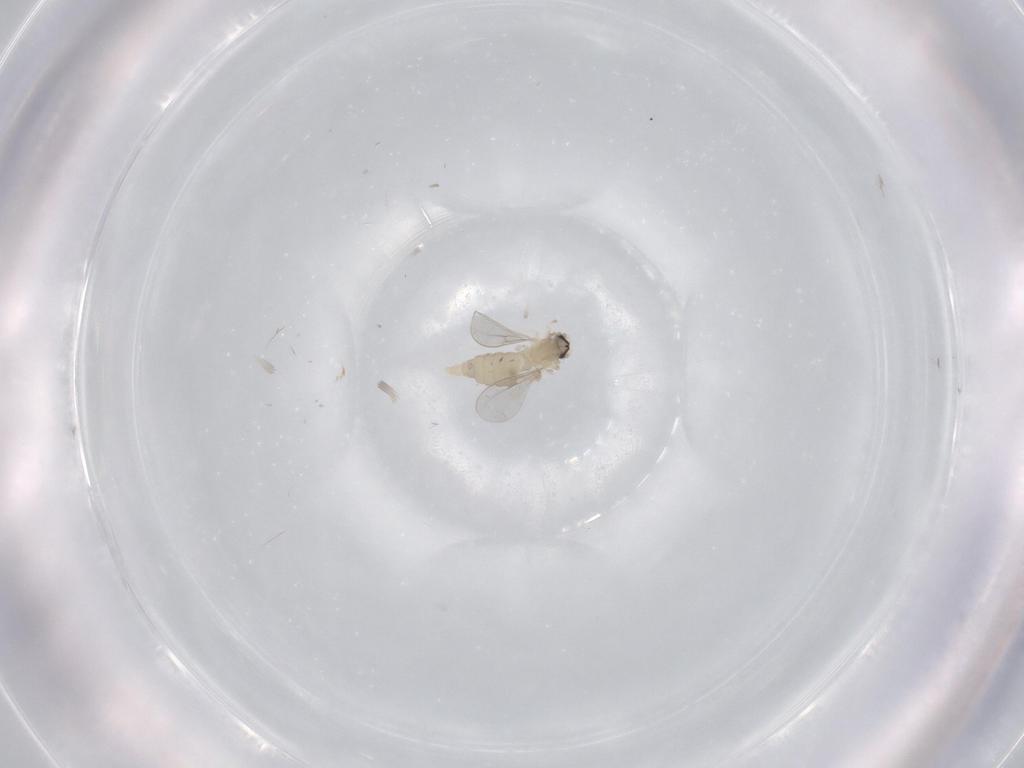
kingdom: Animalia
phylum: Arthropoda
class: Insecta
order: Diptera
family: Cecidomyiidae
